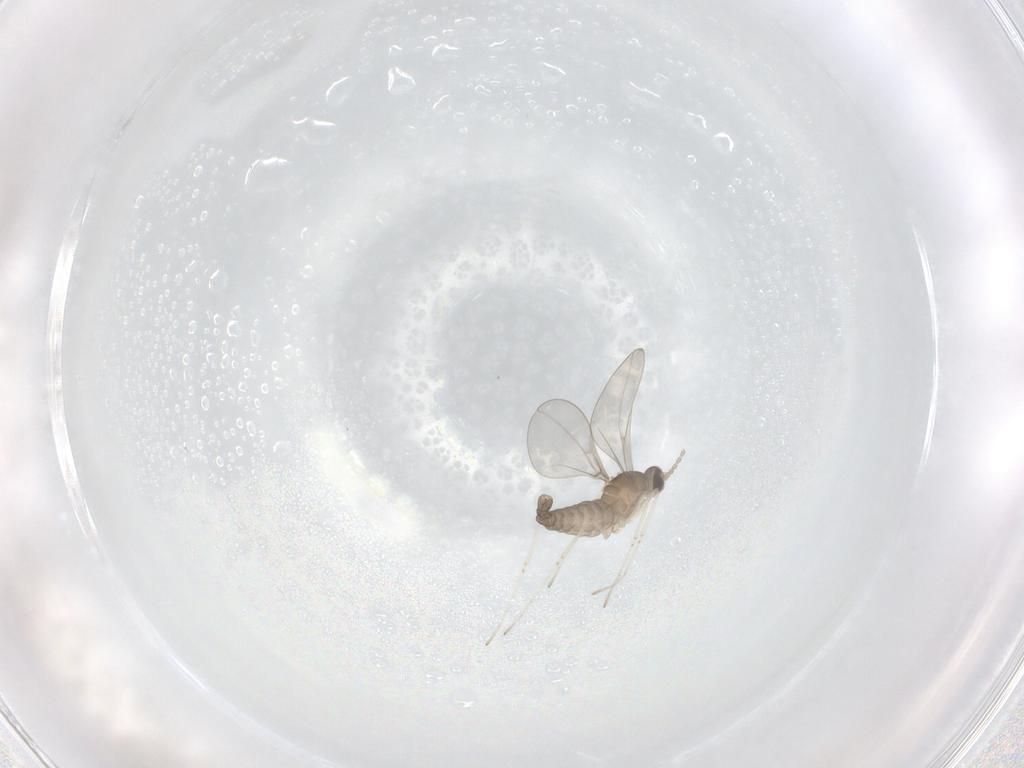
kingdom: Animalia
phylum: Arthropoda
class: Insecta
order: Diptera
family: Cecidomyiidae
